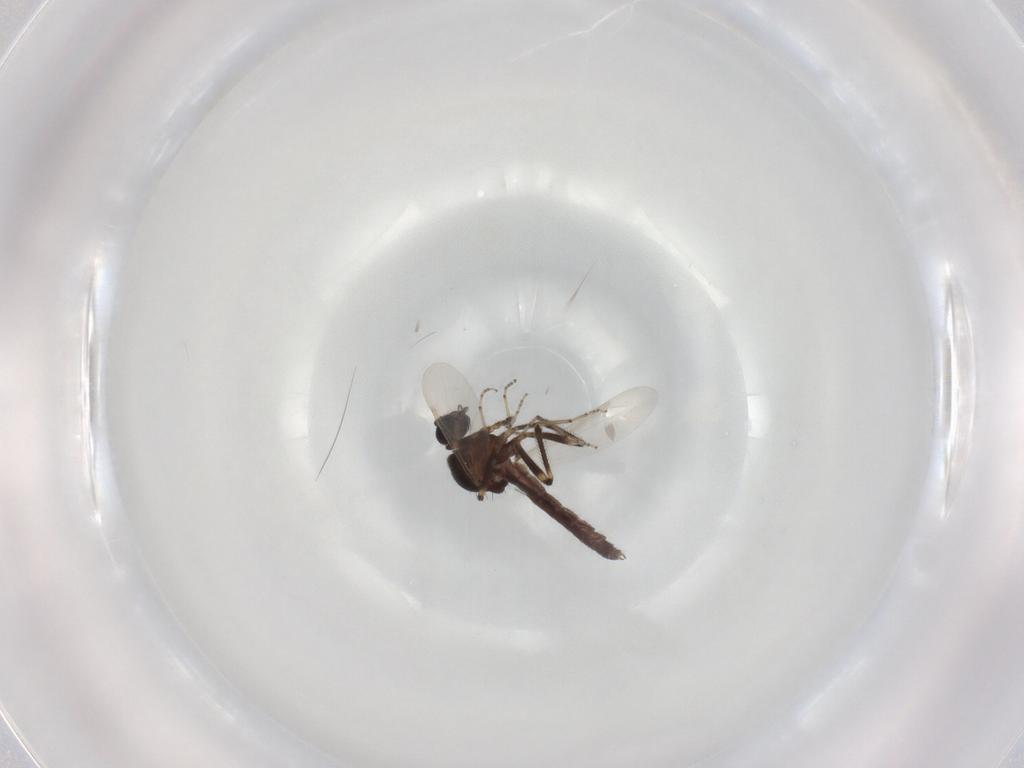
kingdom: Animalia
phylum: Arthropoda
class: Insecta
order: Diptera
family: Ceratopogonidae
